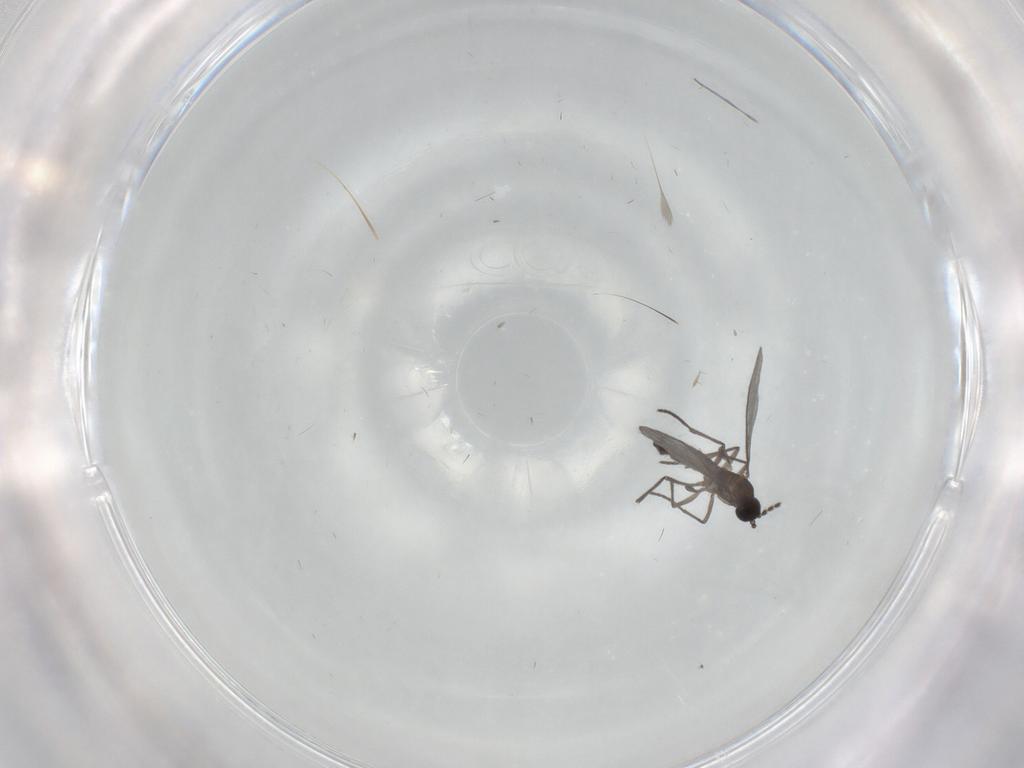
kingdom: Animalia
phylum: Arthropoda
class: Insecta
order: Diptera
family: Sciaridae
